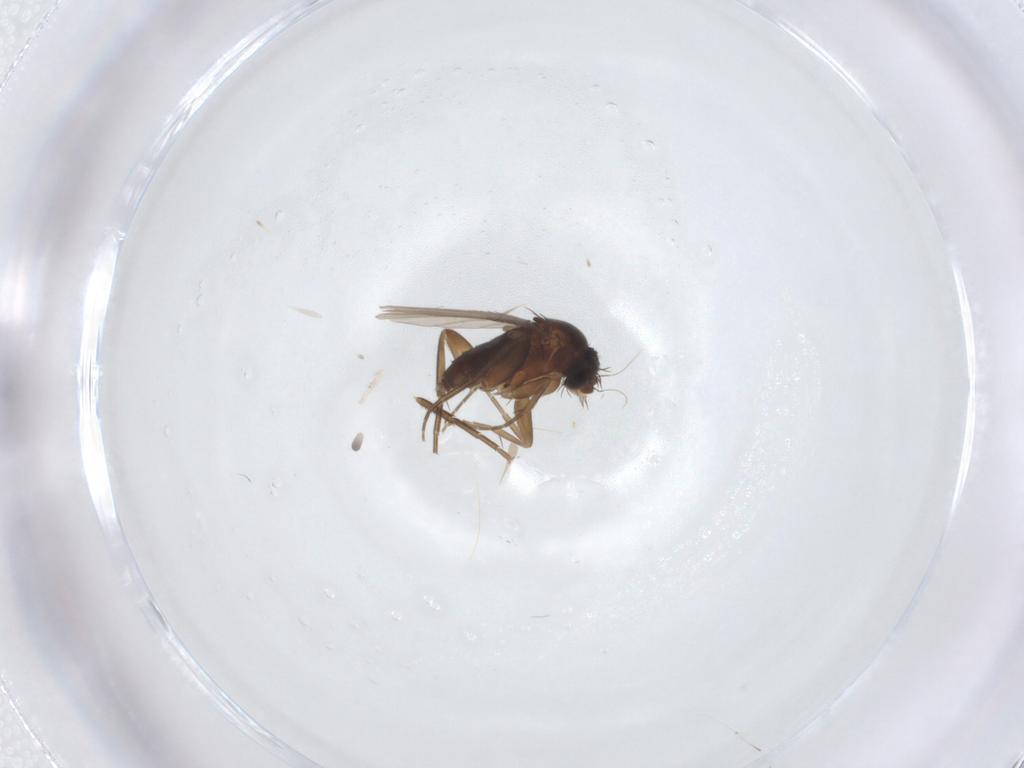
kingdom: Animalia
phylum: Arthropoda
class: Insecta
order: Diptera
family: Phoridae
